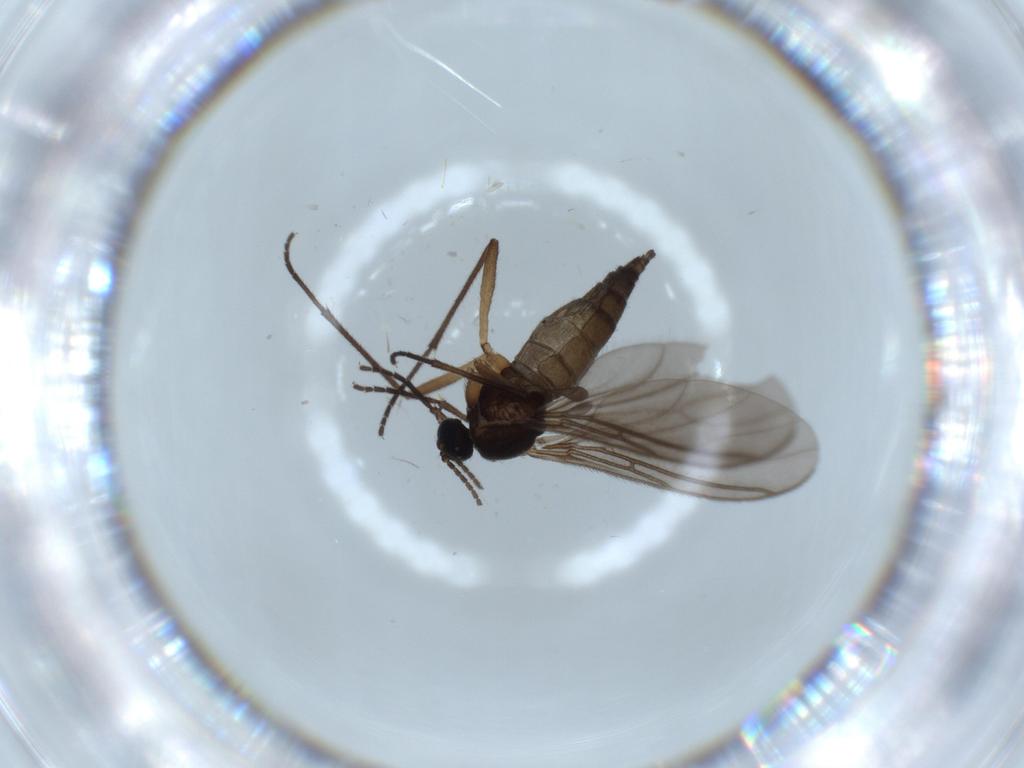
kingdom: Animalia
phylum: Arthropoda
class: Insecta
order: Diptera
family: Sciaridae
